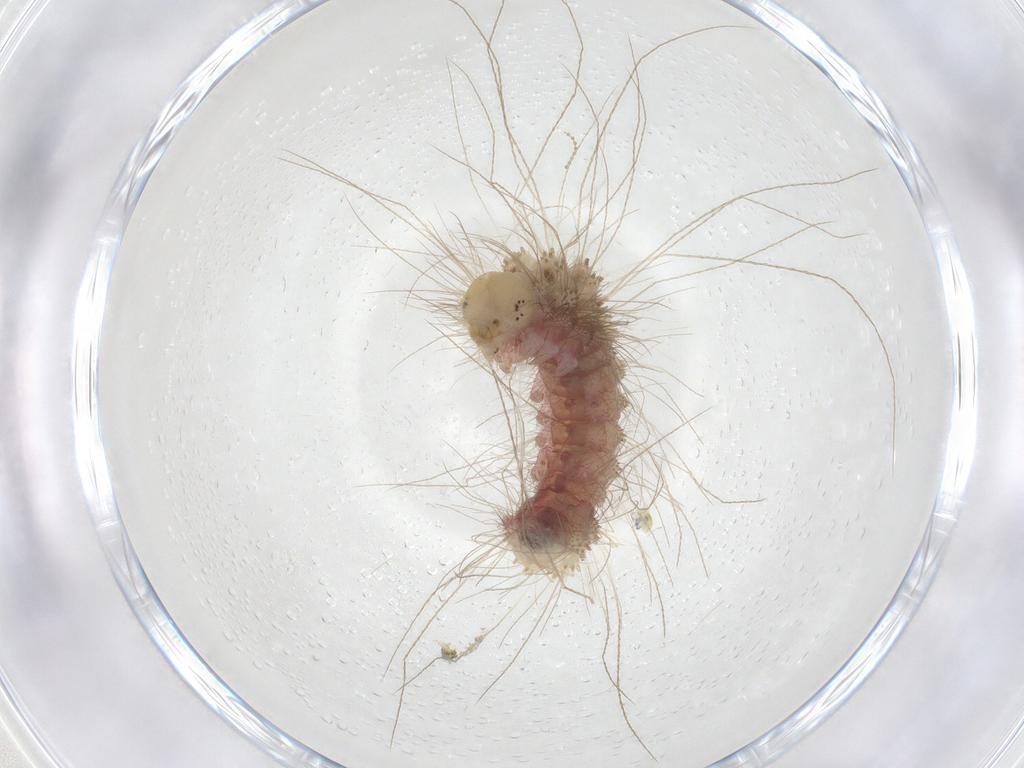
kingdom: Animalia
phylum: Arthropoda
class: Insecta
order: Lepidoptera
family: Erebidae
